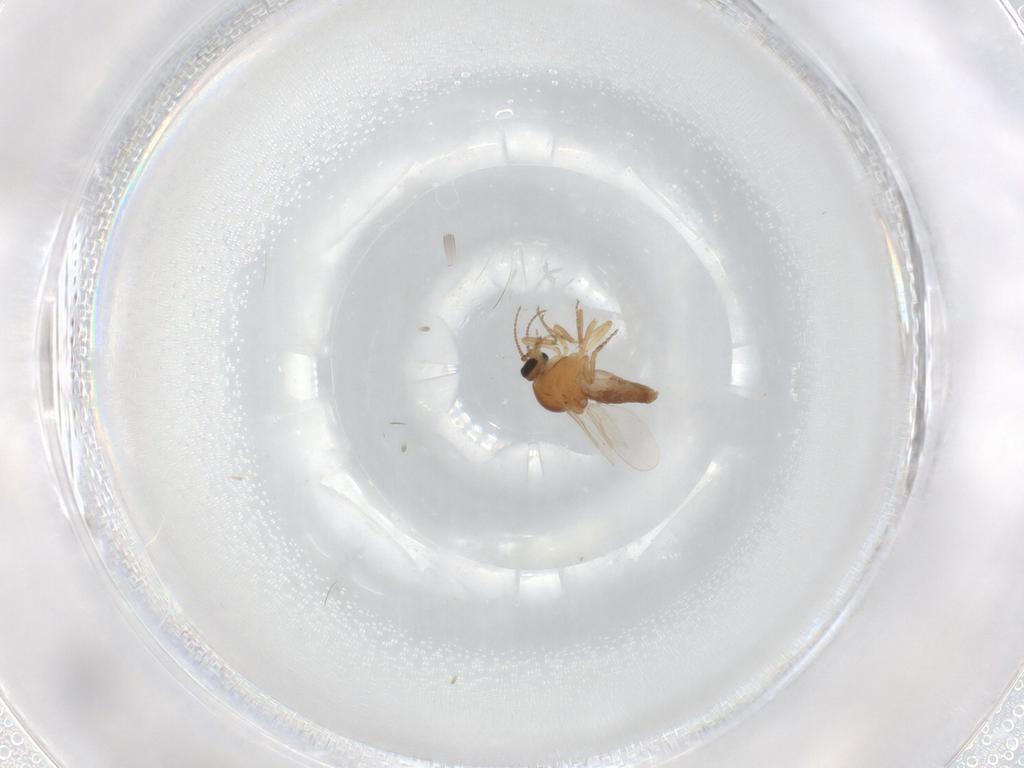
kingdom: Animalia
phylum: Arthropoda
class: Insecta
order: Diptera
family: Ceratopogonidae
